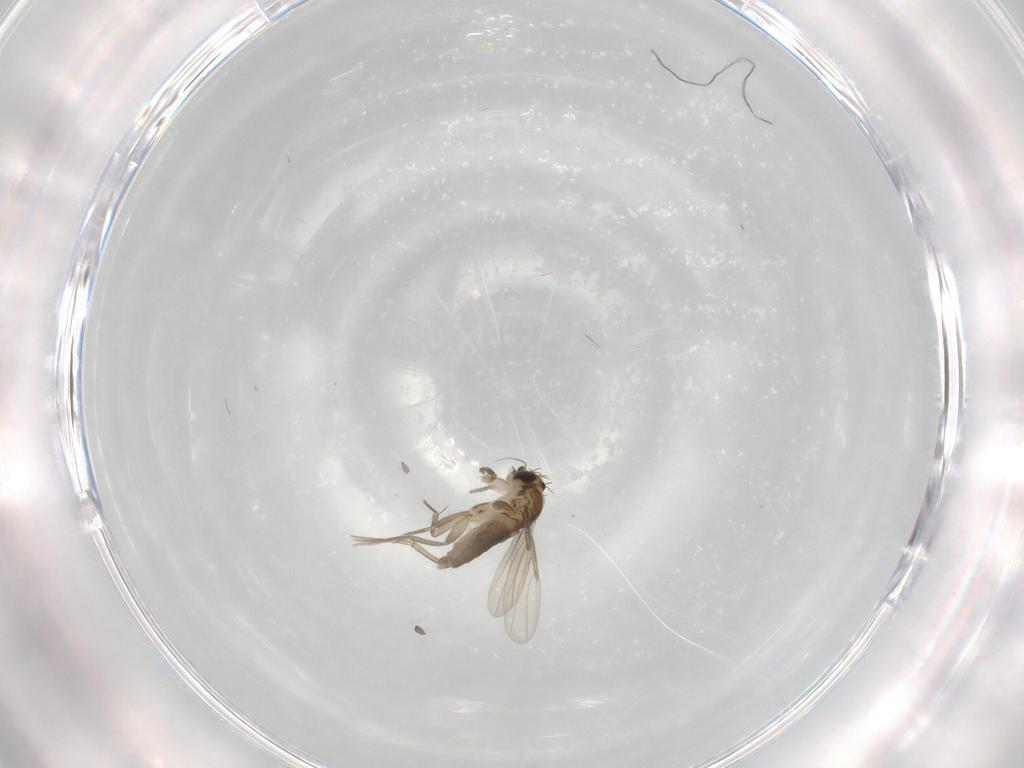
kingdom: Animalia
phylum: Arthropoda
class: Insecta
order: Diptera
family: Phoridae
